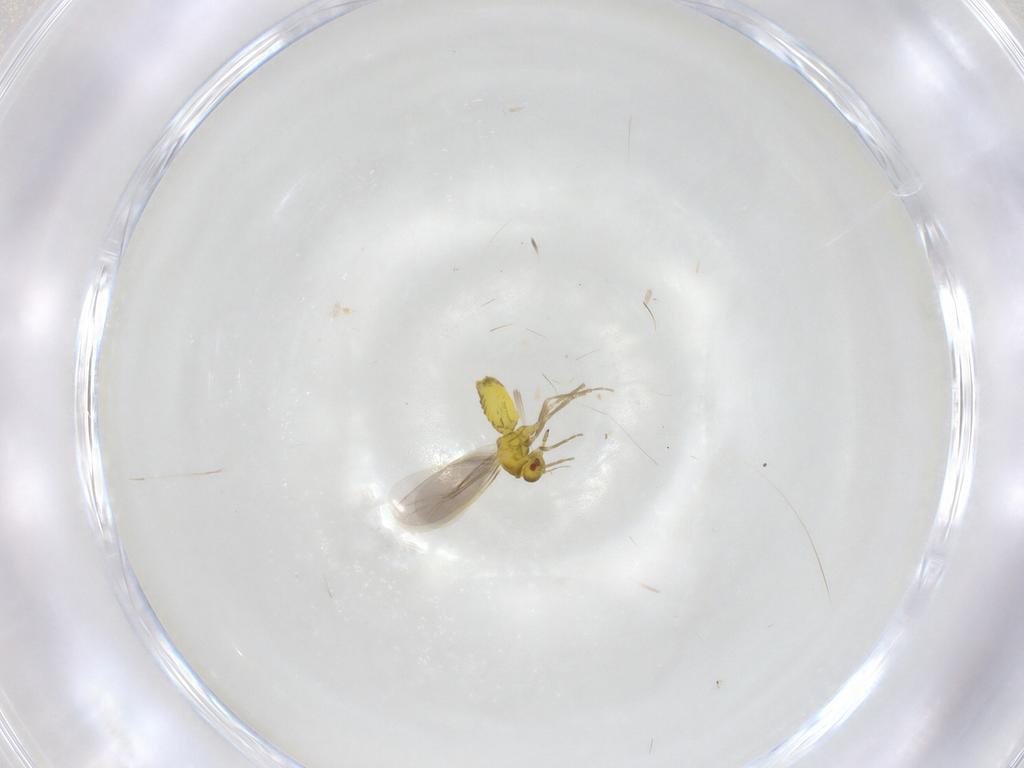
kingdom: Animalia
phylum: Arthropoda
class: Insecta
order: Hemiptera
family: Aleyrodidae
